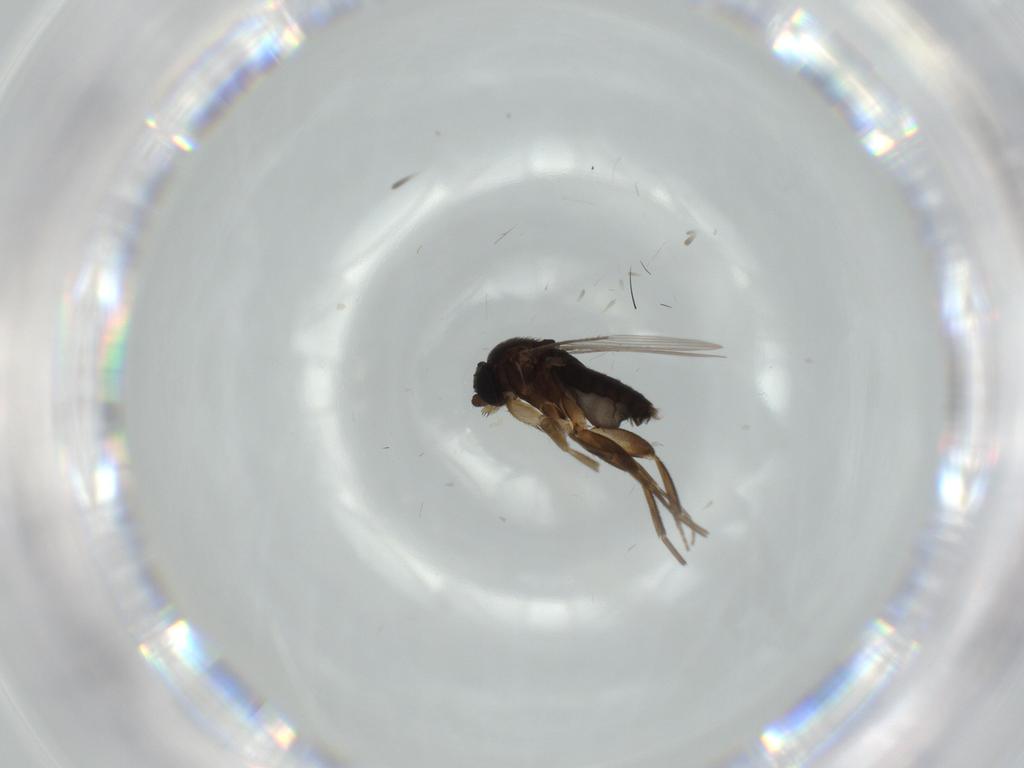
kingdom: Animalia
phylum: Arthropoda
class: Insecta
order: Diptera
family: Phoridae
